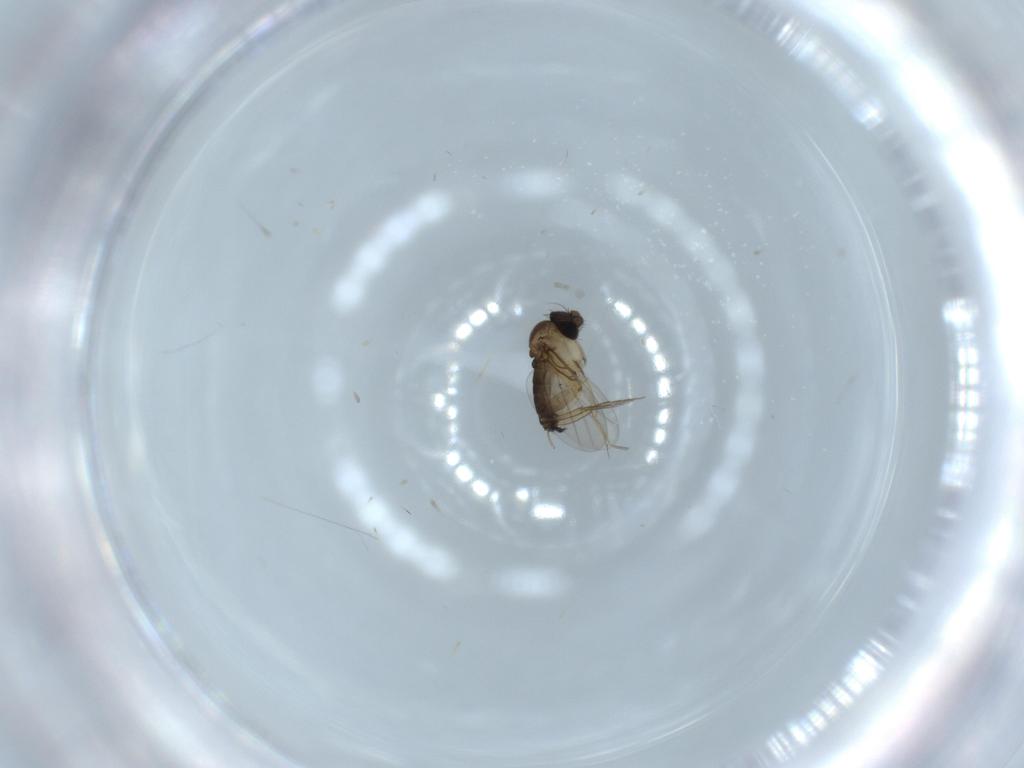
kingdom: Animalia
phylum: Arthropoda
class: Insecta
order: Diptera
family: Phoridae
